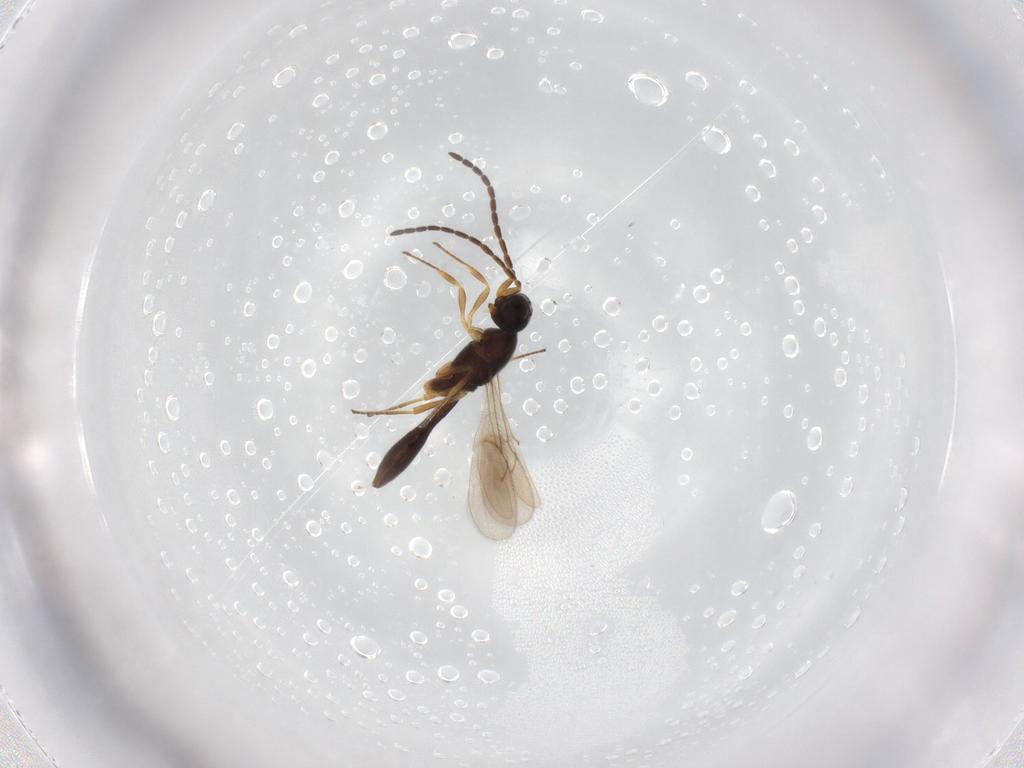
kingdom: Animalia
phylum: Arthropoda
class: Insecta
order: Hymenoptera
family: Scelionidae
